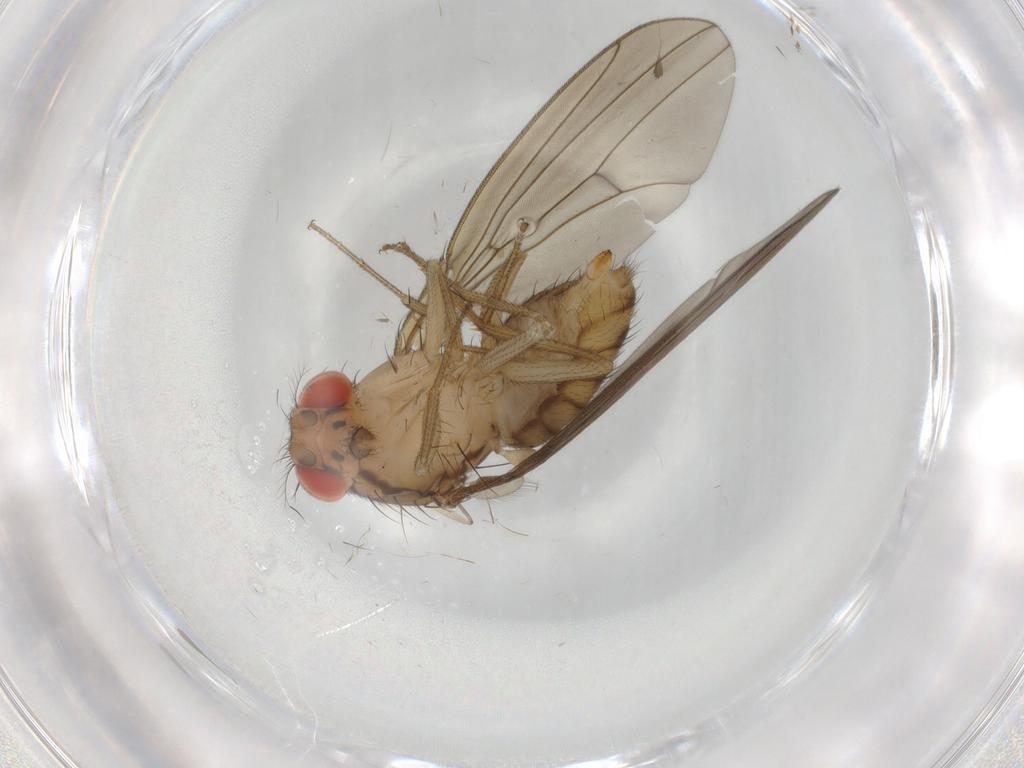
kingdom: Animalia
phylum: Arthropoda
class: Insecta
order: Diptera
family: Drosophilidae
